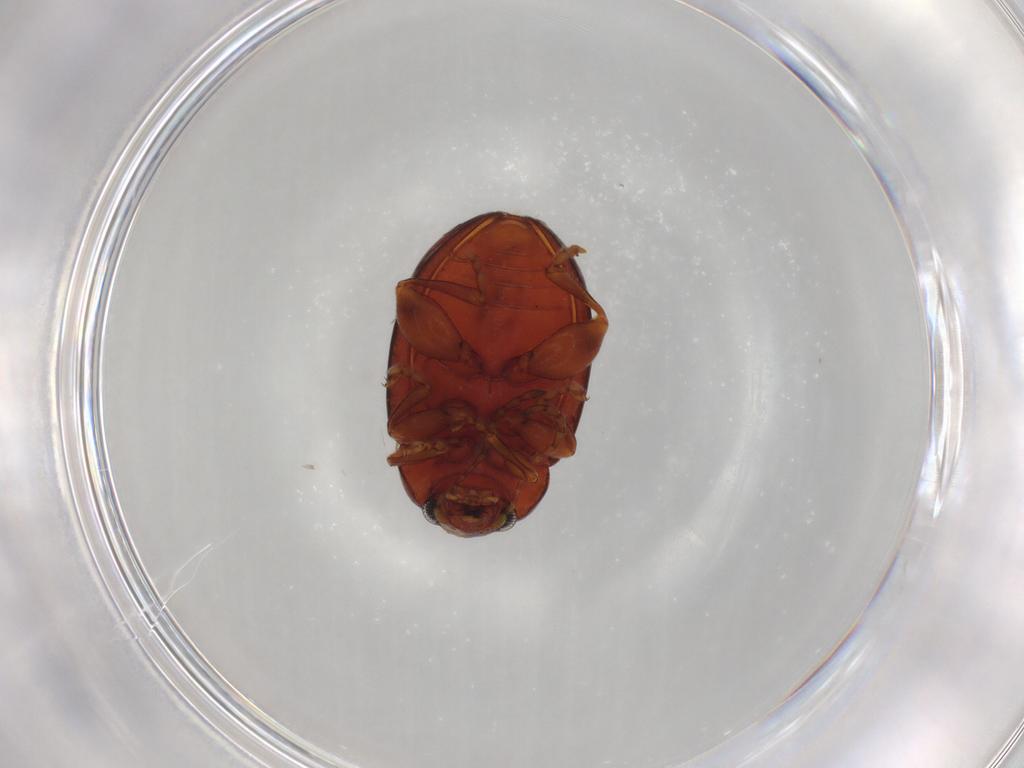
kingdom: Animalia
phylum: Arthropoda
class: Insecta
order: Coleoptera
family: Chrysomelidae
